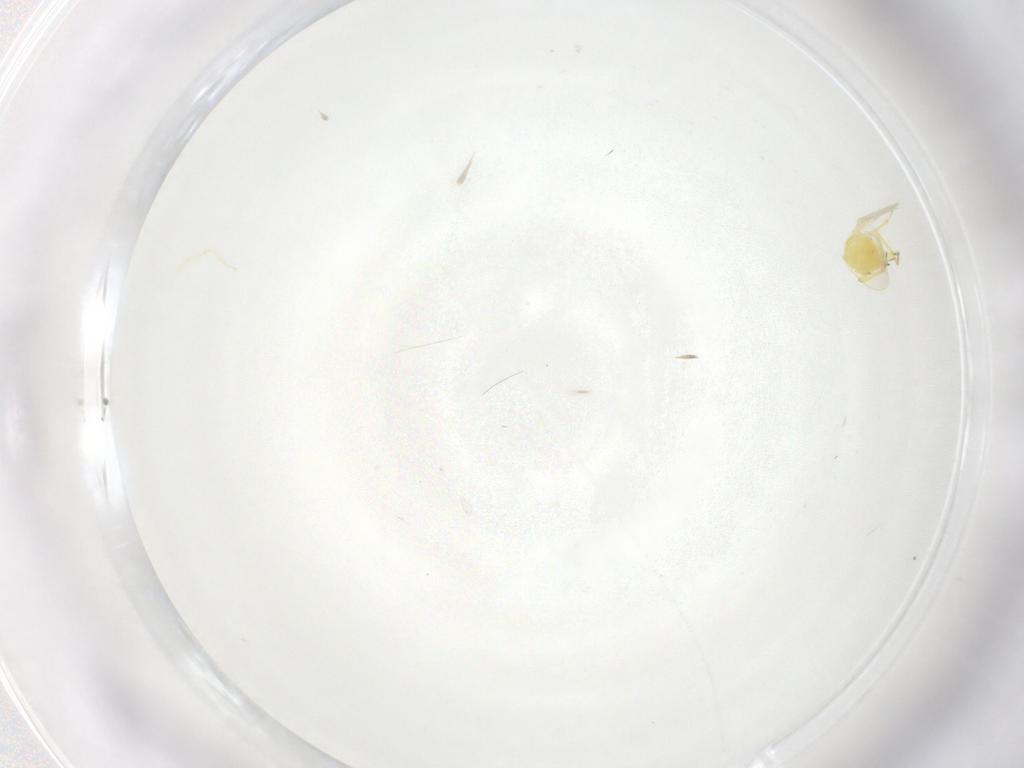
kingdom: Animalia
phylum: Arthropoda
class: Insecta
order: Hemiptera
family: Aleyrodidae
